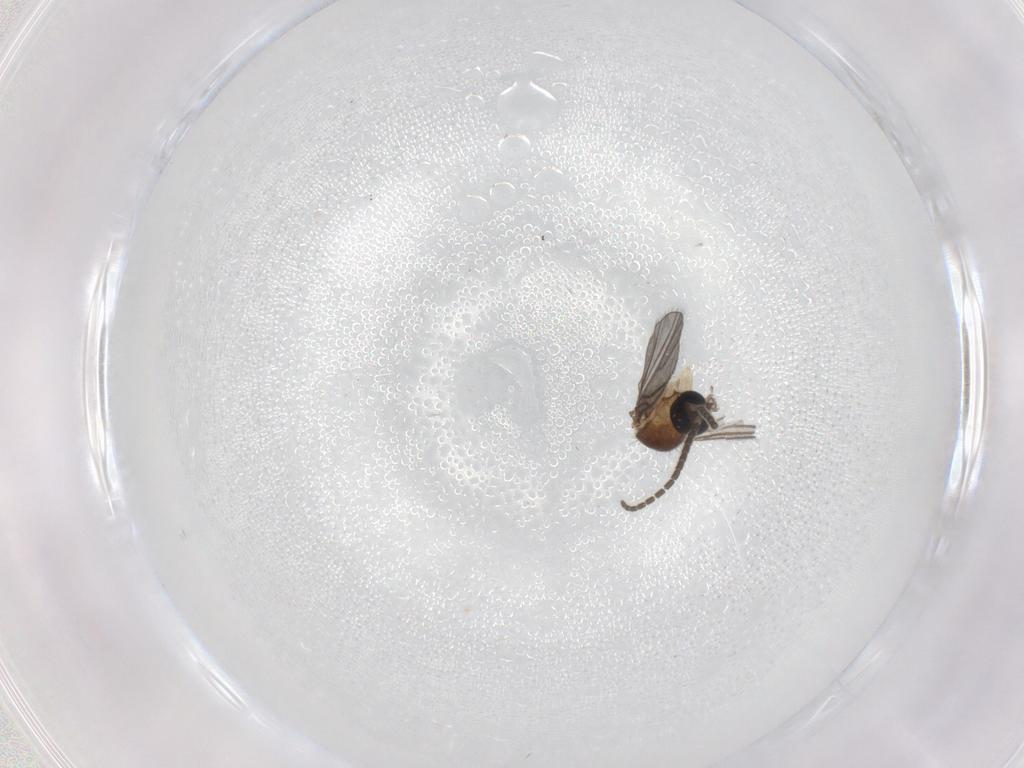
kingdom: Animalia
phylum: Arthropoda
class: Insecta
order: Diptera
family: Sciaridae
